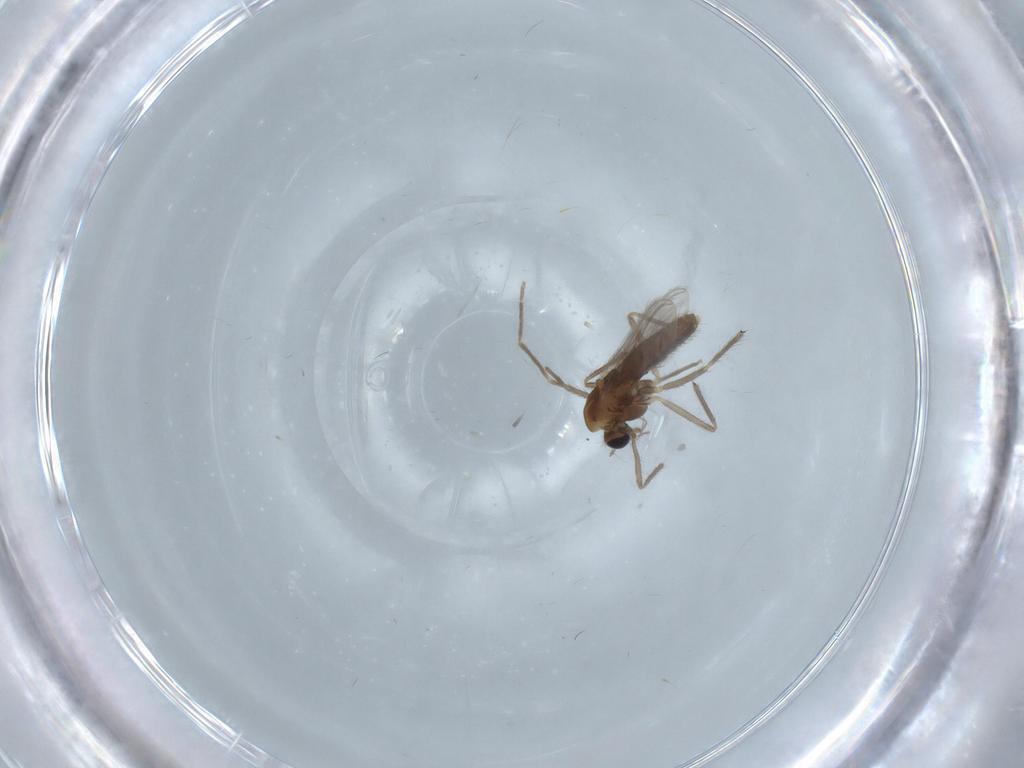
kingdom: Animalia
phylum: Arthropoda
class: Insecta
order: Diptera
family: Chironomidae
